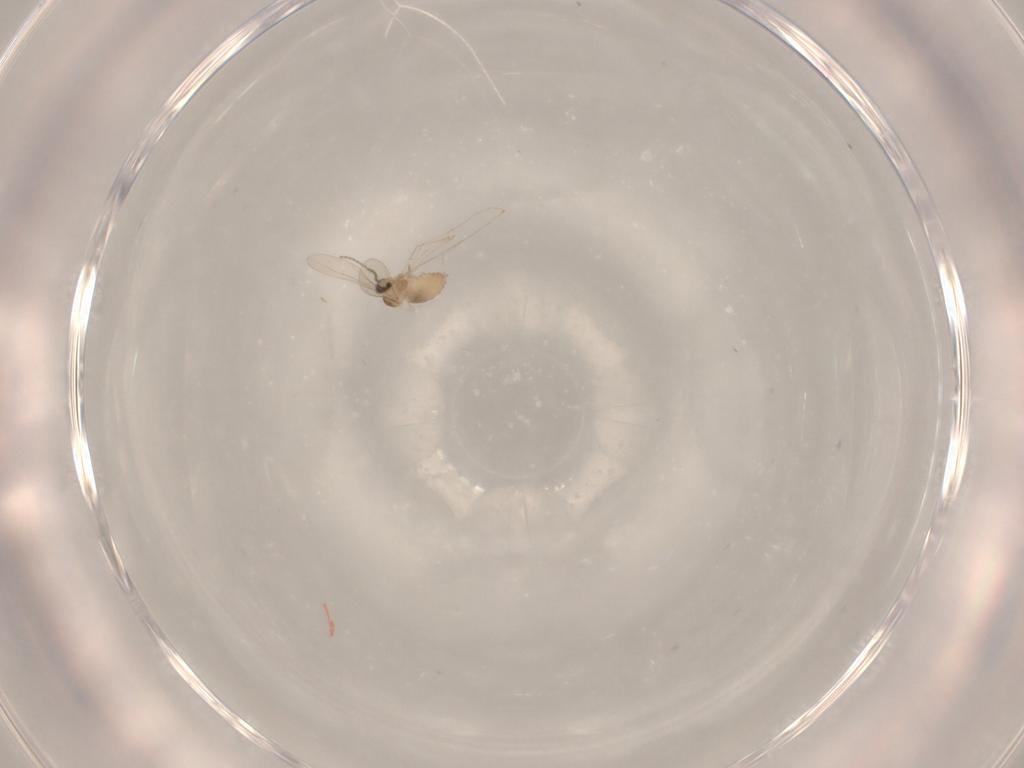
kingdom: Animalia
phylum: Arthropoda
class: Insecta
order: Diptera
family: Cecidomyiidae
